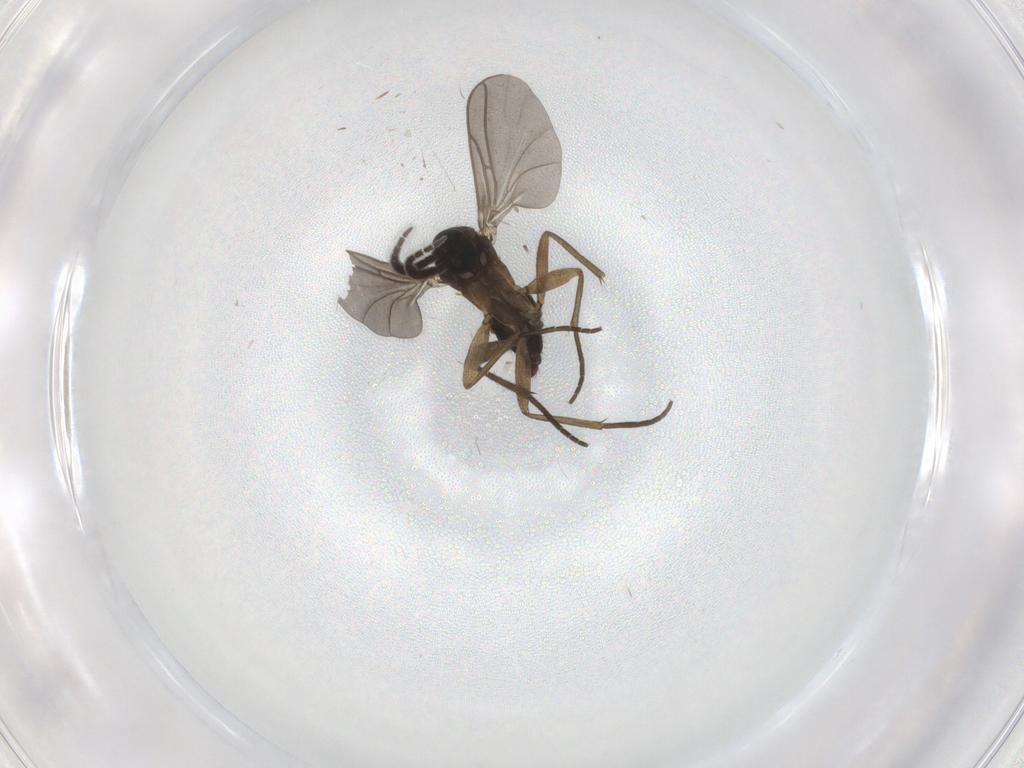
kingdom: Animalia
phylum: Arthropoda
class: Insecta
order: Diptera
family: Sciaridae
